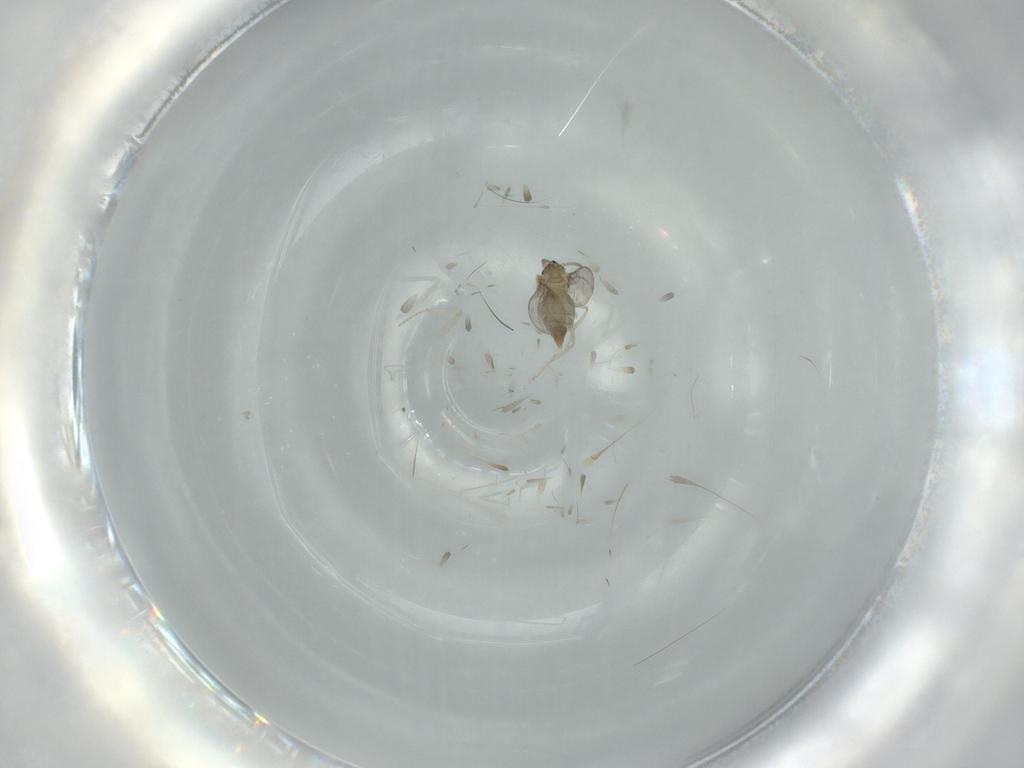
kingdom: Animalia
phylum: Arthropoda
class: Insecta
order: Diptera
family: Cecidomyiidae
